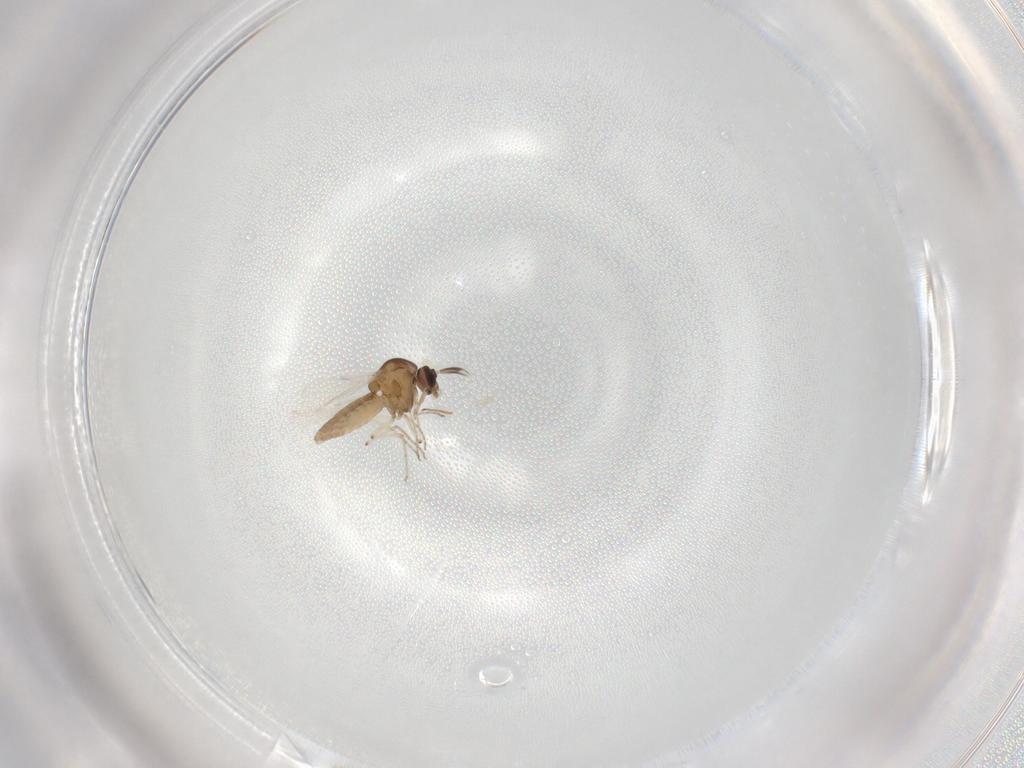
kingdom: Animalia
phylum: Arthropoda
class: Insecta
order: Diptera
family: Ceratopogonidae
